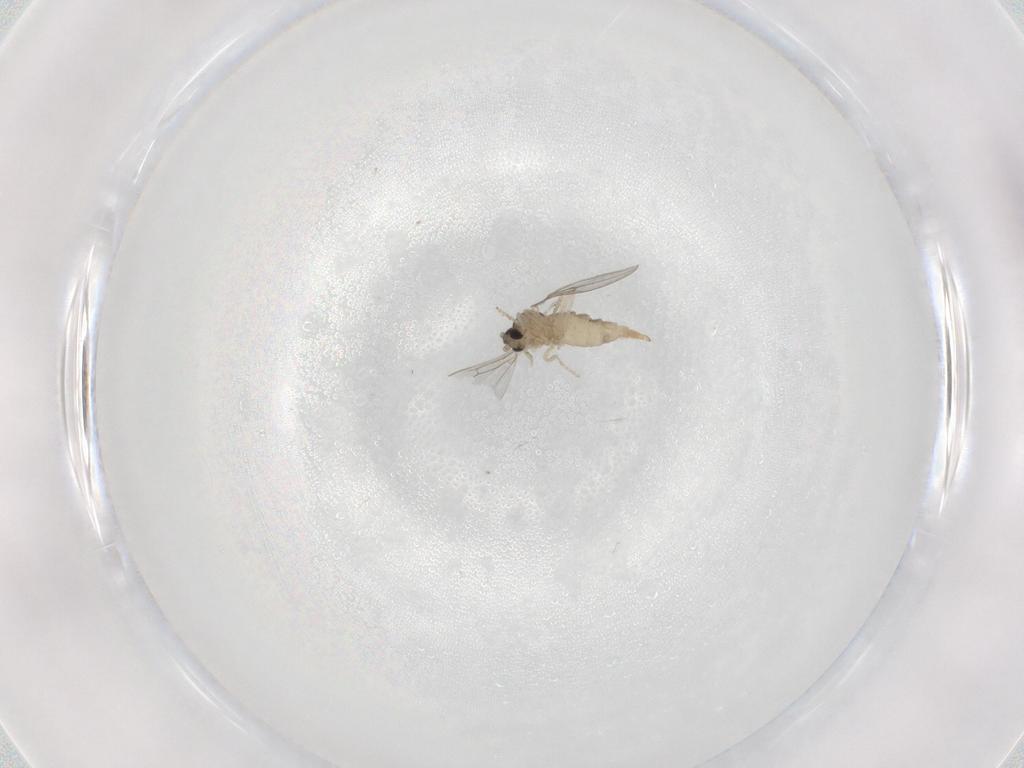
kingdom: Animalia
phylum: Arthropoda
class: Insecta
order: Diptera
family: Cecidomyiidae
